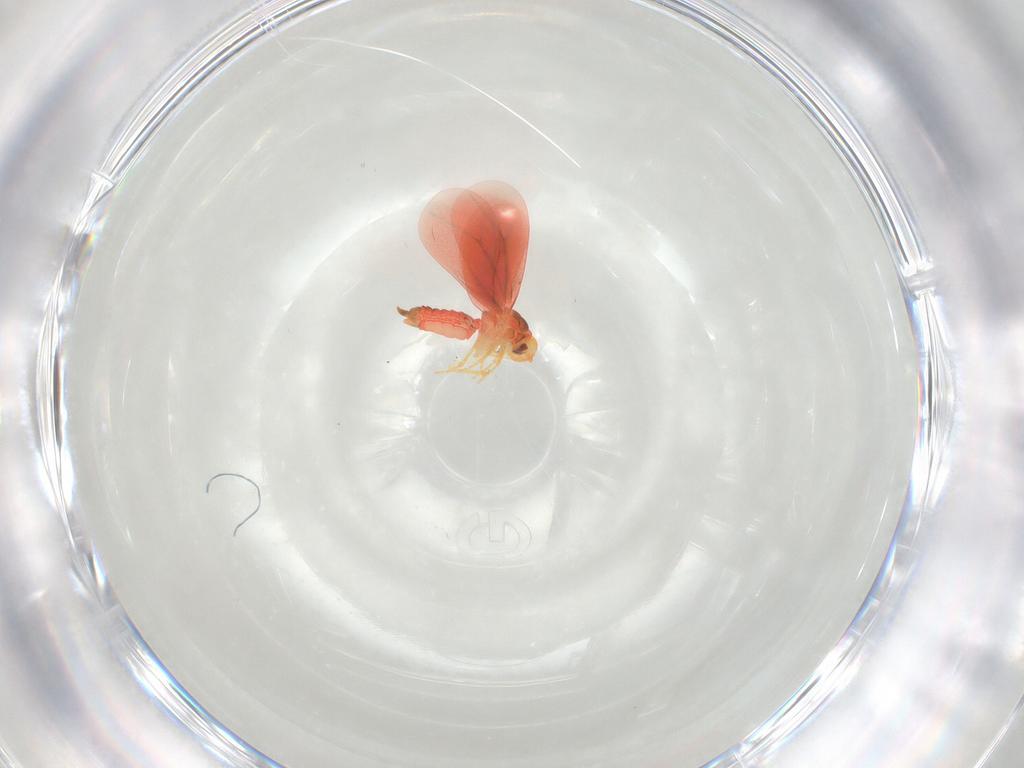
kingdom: Animalia
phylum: Arthropoda
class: Insecta
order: Hemiptera
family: Aleyrodidae
